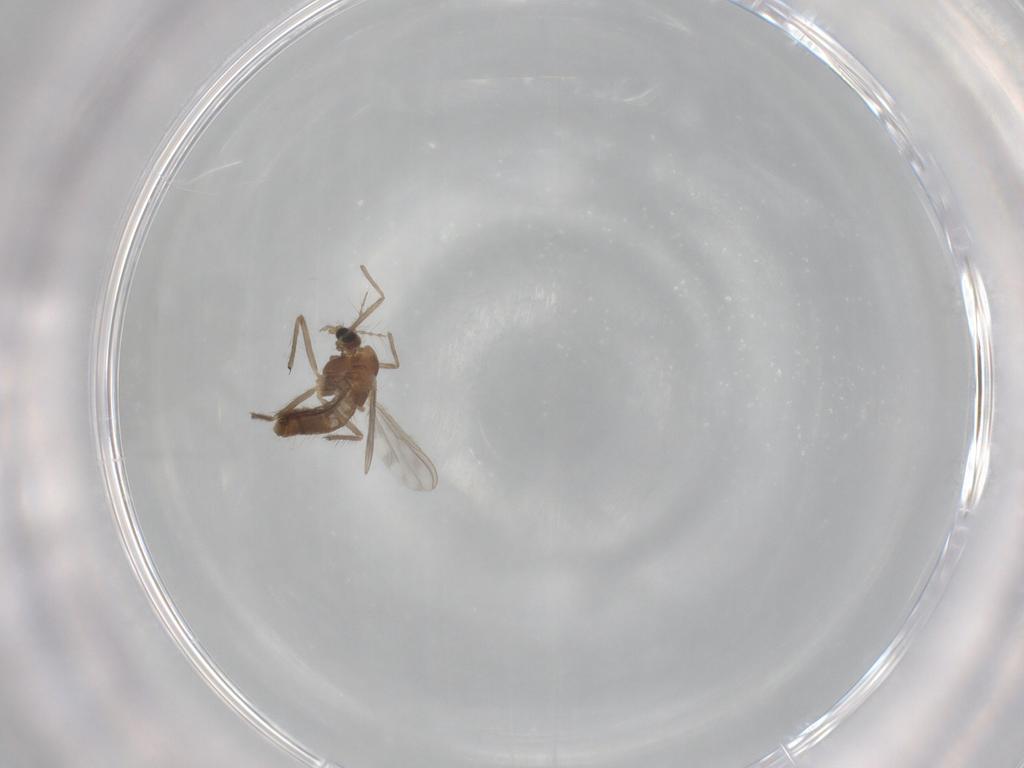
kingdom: Animalia
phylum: Arthropoda
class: Insecta
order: Diptera
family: Chironomidae
